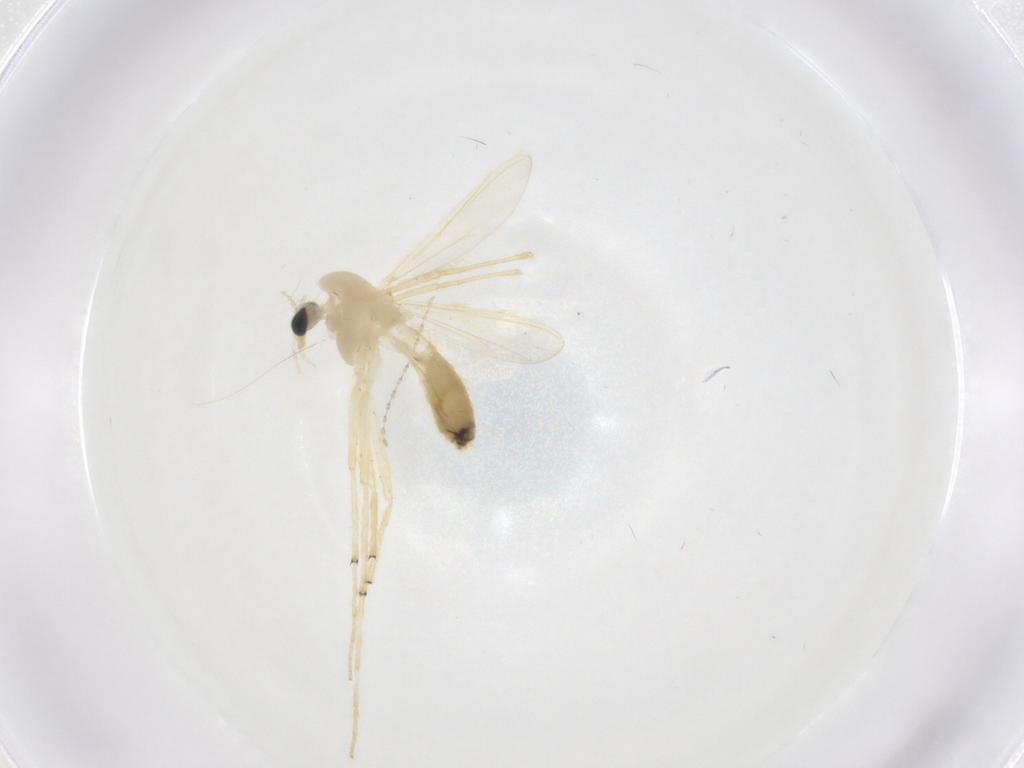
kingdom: Animalia
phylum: Arthropoda
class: Insecta
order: Diptera
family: Chironomidae
